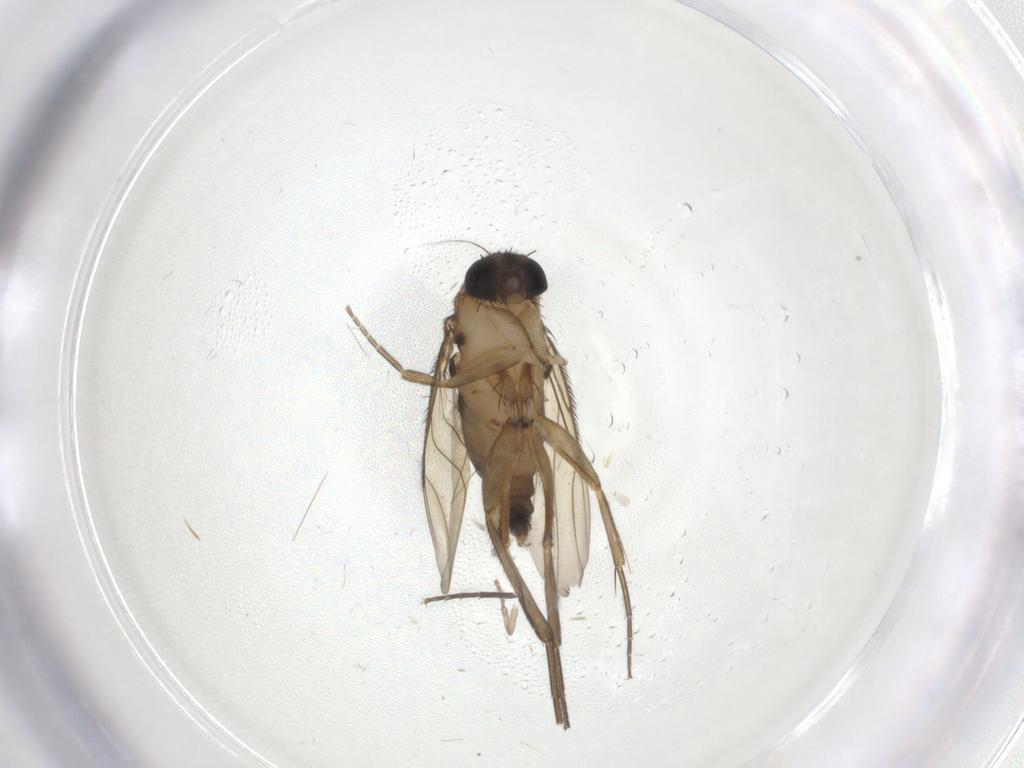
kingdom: Animalia
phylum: Arthropoda
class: Insecta
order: Diptera
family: Phoridae
